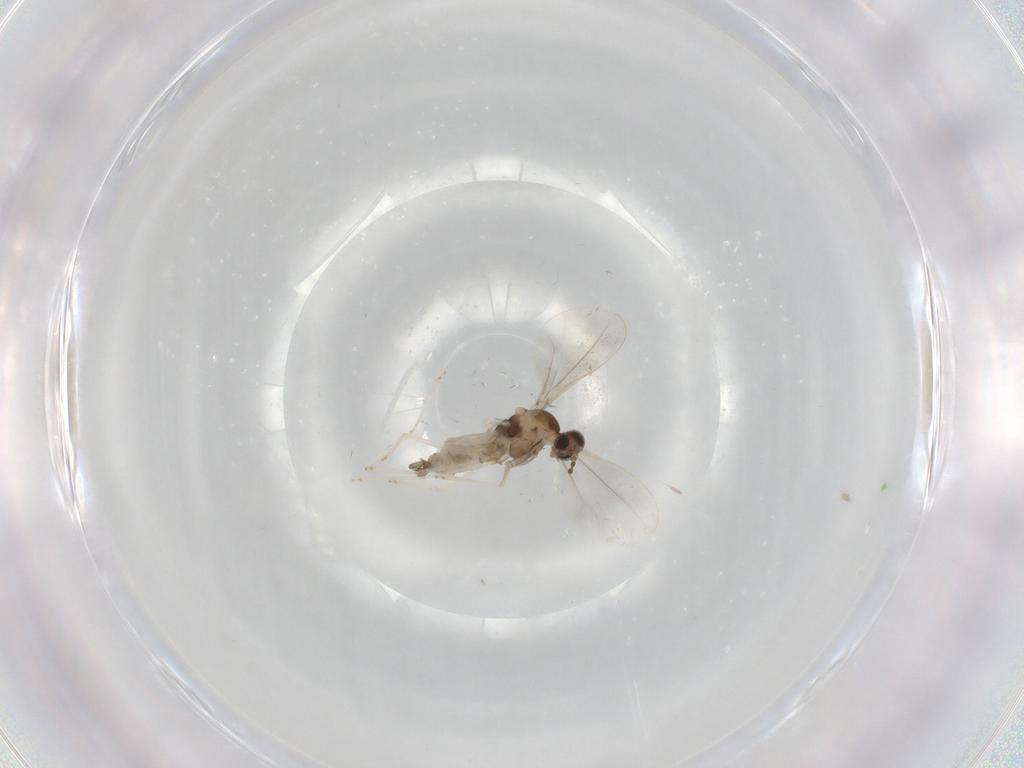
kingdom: Animalia
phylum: Arthropoda
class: Insecta
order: Diptera
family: Cecidomyiidae
